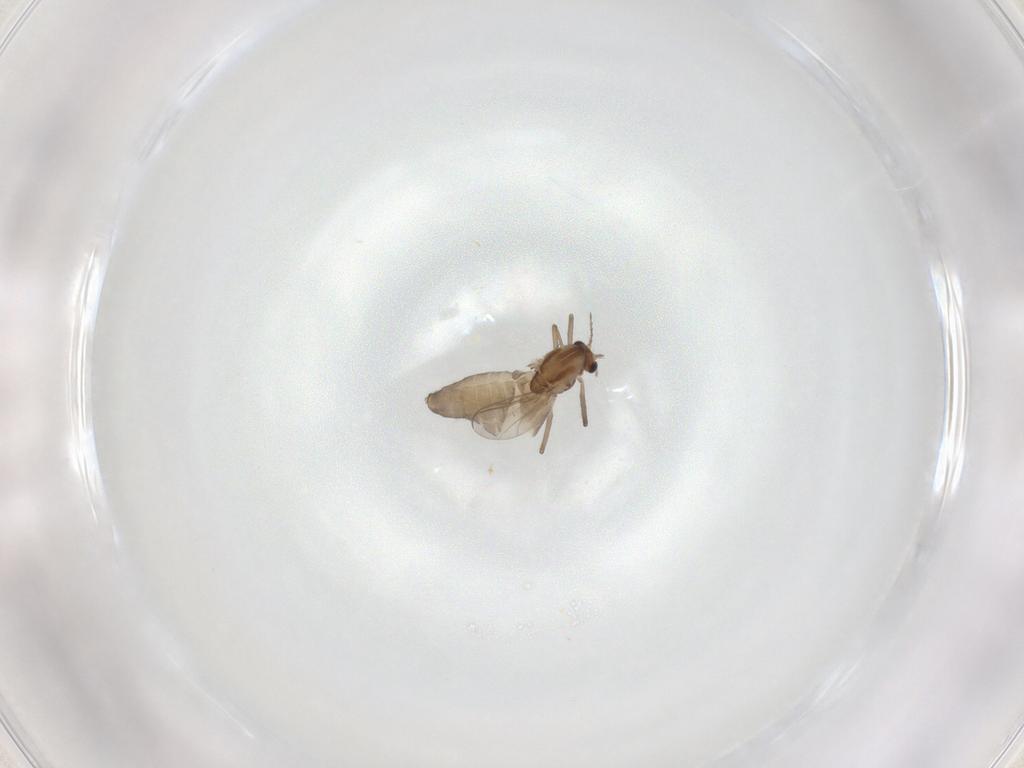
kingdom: Animalia
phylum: Arthropoda
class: Insecta
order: Diptera
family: Chironomidae
